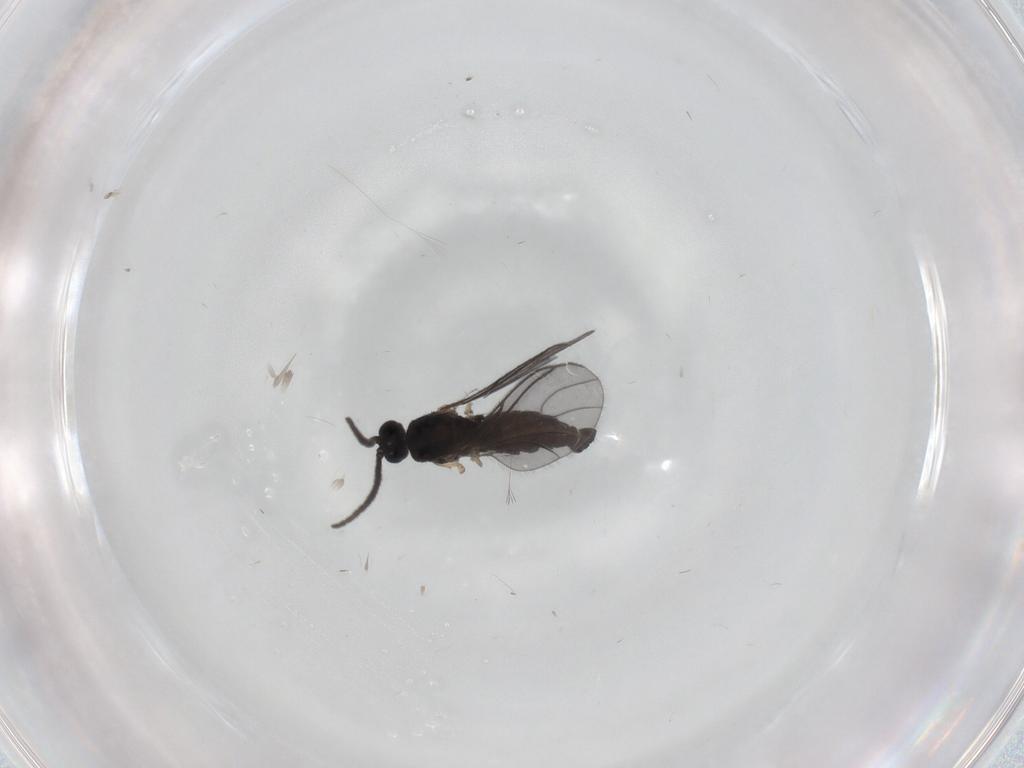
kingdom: Animalia
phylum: Arthropoda
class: Insecta
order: Diptera
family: Sciaridae
